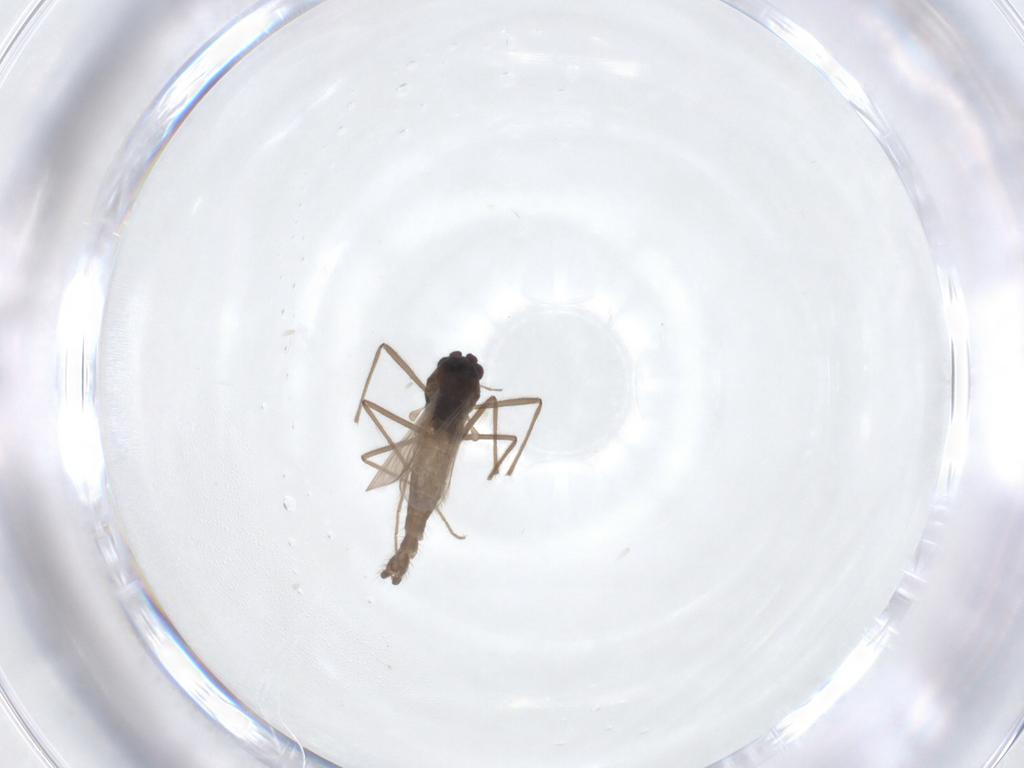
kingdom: Animalia
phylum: Arthropoda
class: Insecta
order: Diptera
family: Chironomidae
